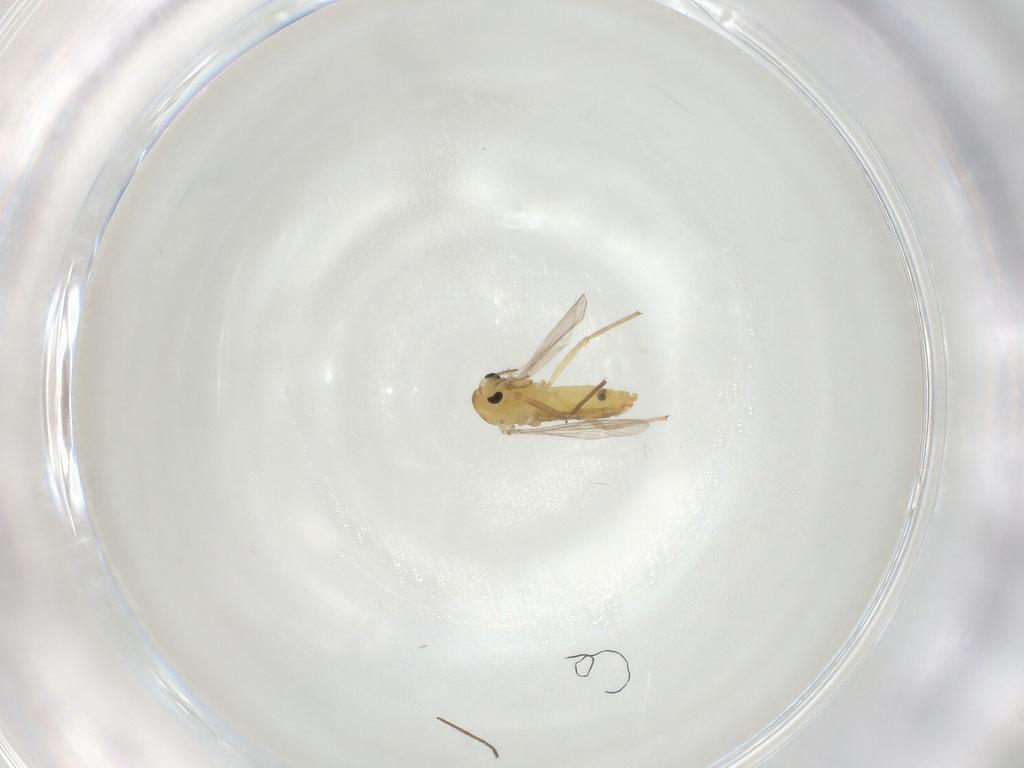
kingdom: Animalia
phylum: Arthropoda
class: Insecta
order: Diptera
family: Chironomidae
